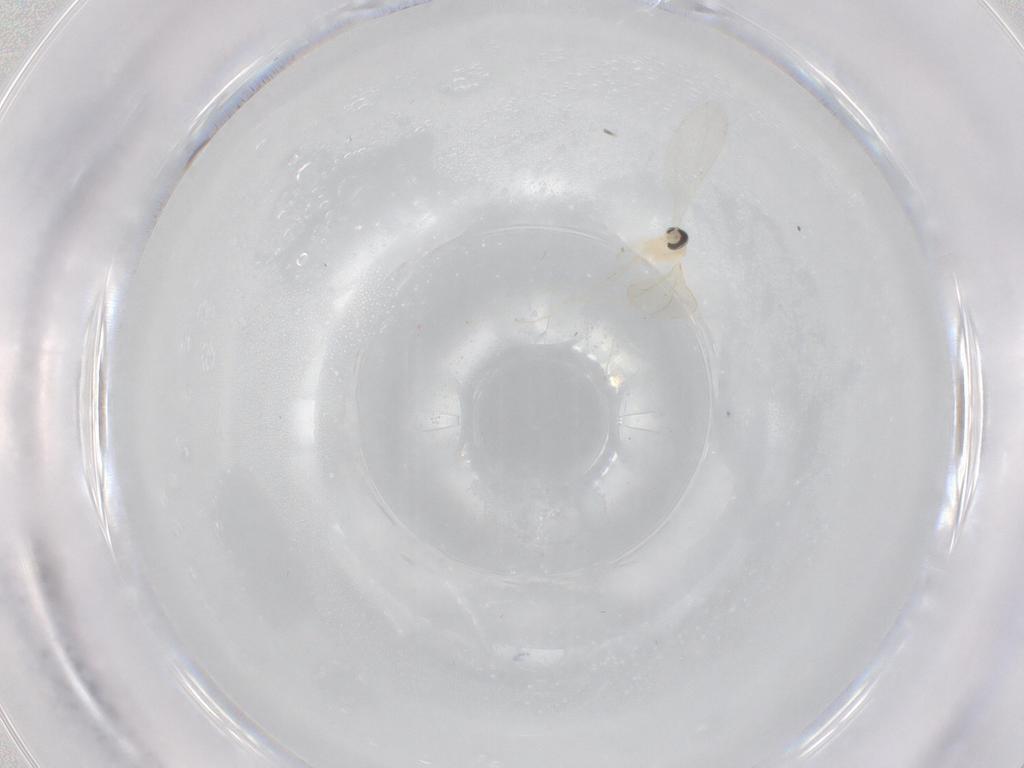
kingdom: Animalia
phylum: Arthropoda
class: Insecta
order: Diptera
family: Cecidomyiidae
